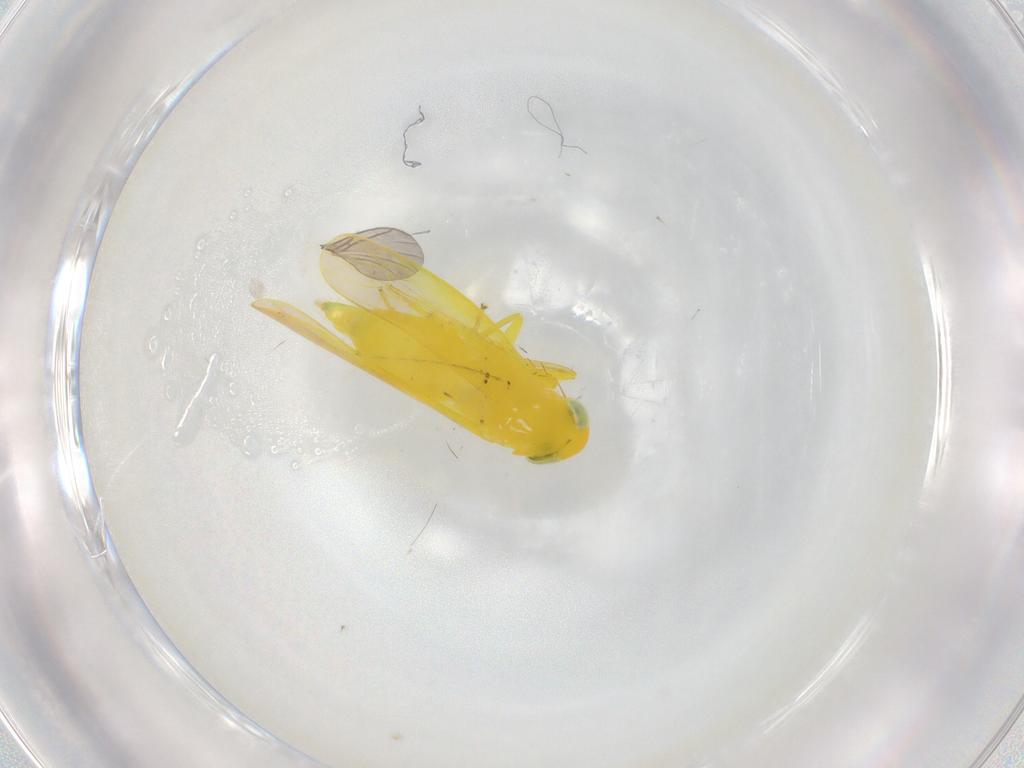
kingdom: Animalia
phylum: Arthropoda
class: Insecta
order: Hemiptera
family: Cicadellidae
